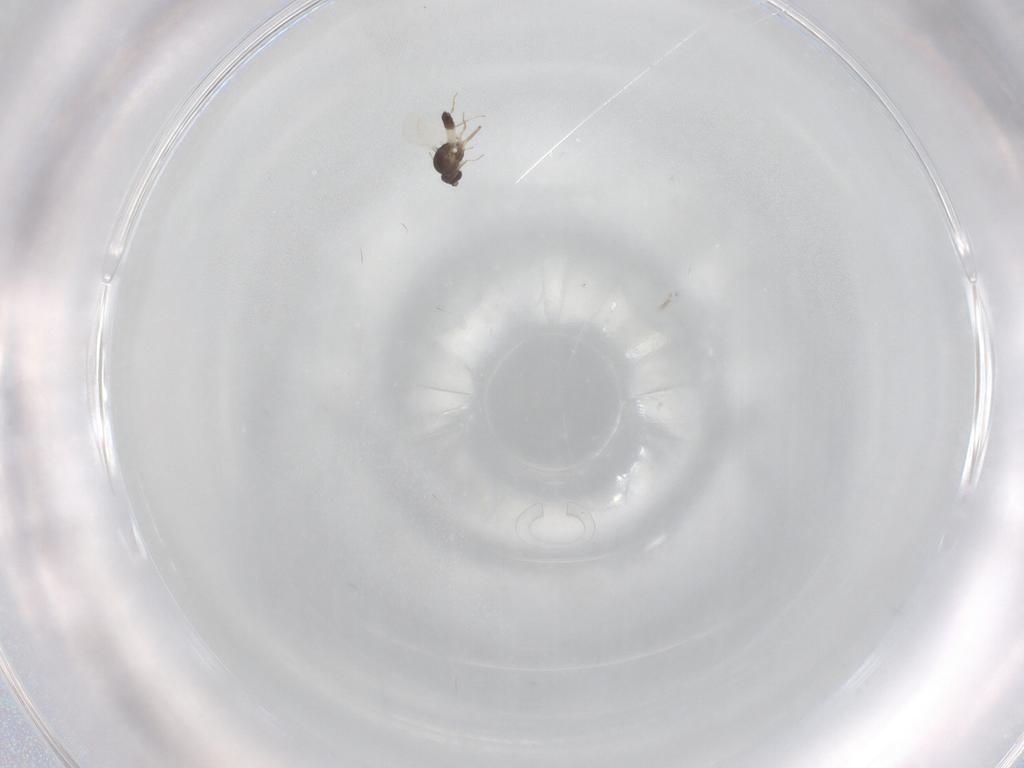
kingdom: Animalia
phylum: Arthropoda
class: Insecta
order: Diptera
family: Ceratopogonidae
